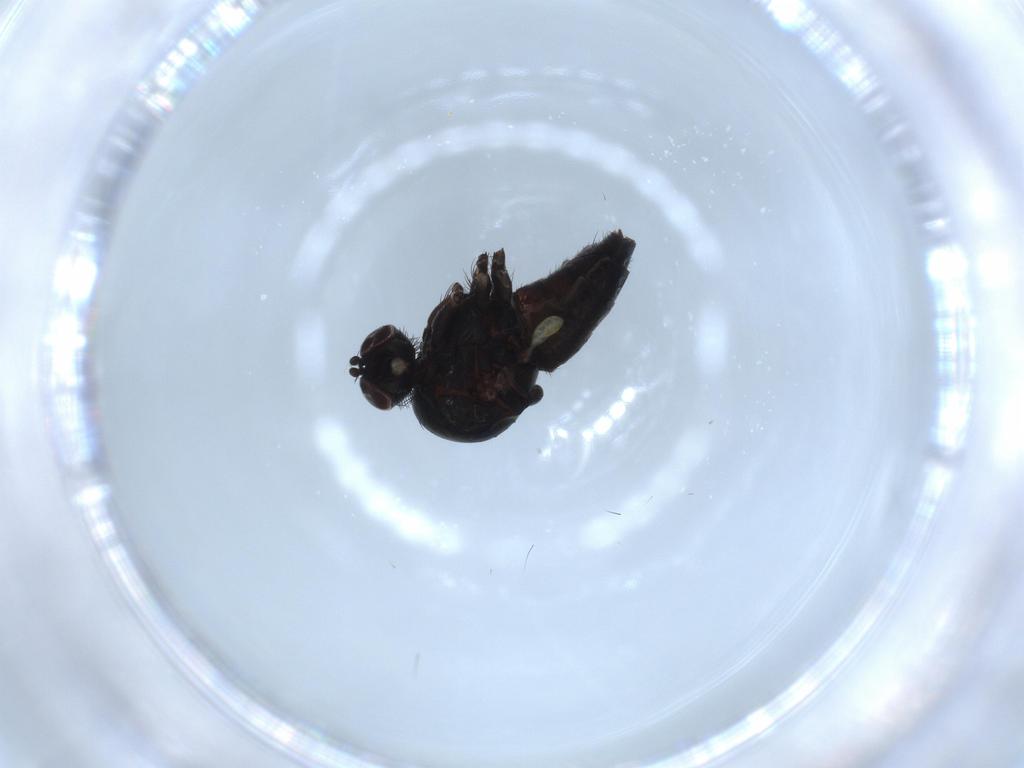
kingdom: Animalia
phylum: Arthropoda
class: Insecta
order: Diptera
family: Dolichopodidae
